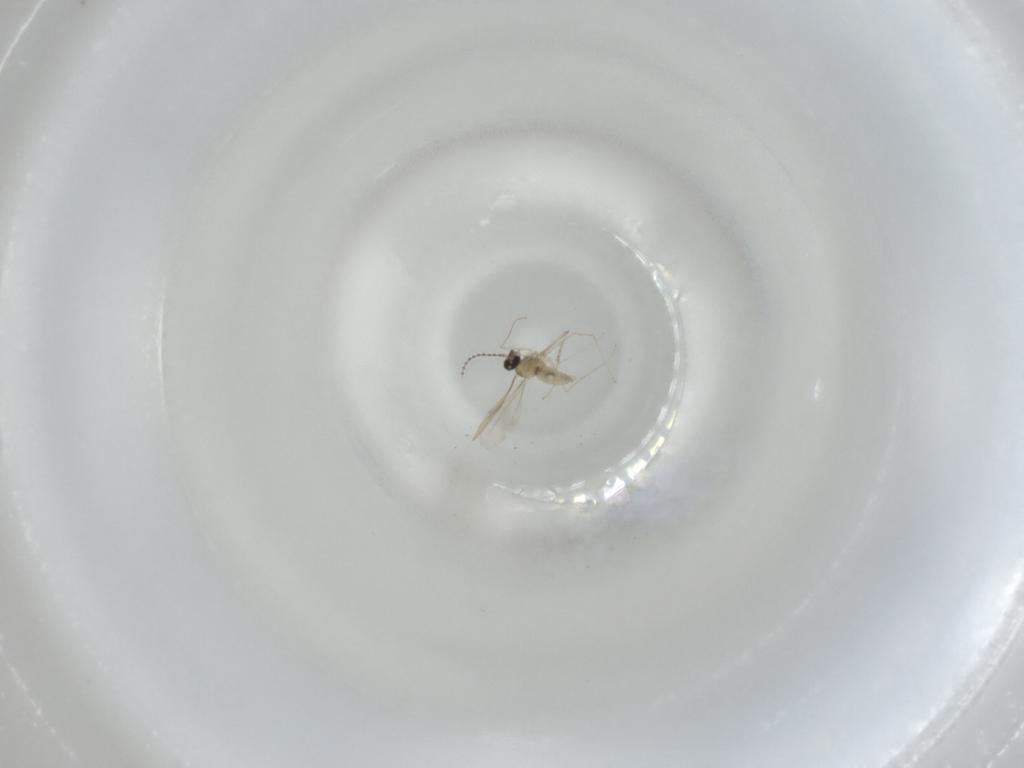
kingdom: Animalia
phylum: Arthropoda
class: Insecta
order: Diptera
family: Cecidomyiidae
